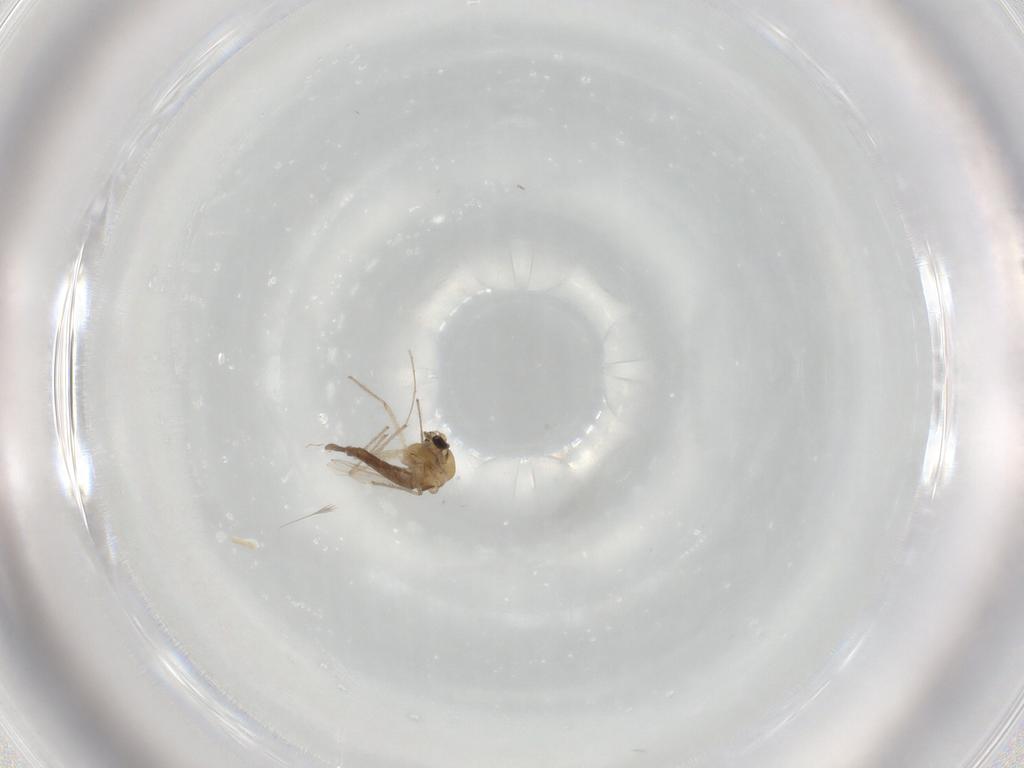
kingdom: Animalia
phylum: Arthropoda
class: Insecta
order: Diptera
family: Chironomidae
